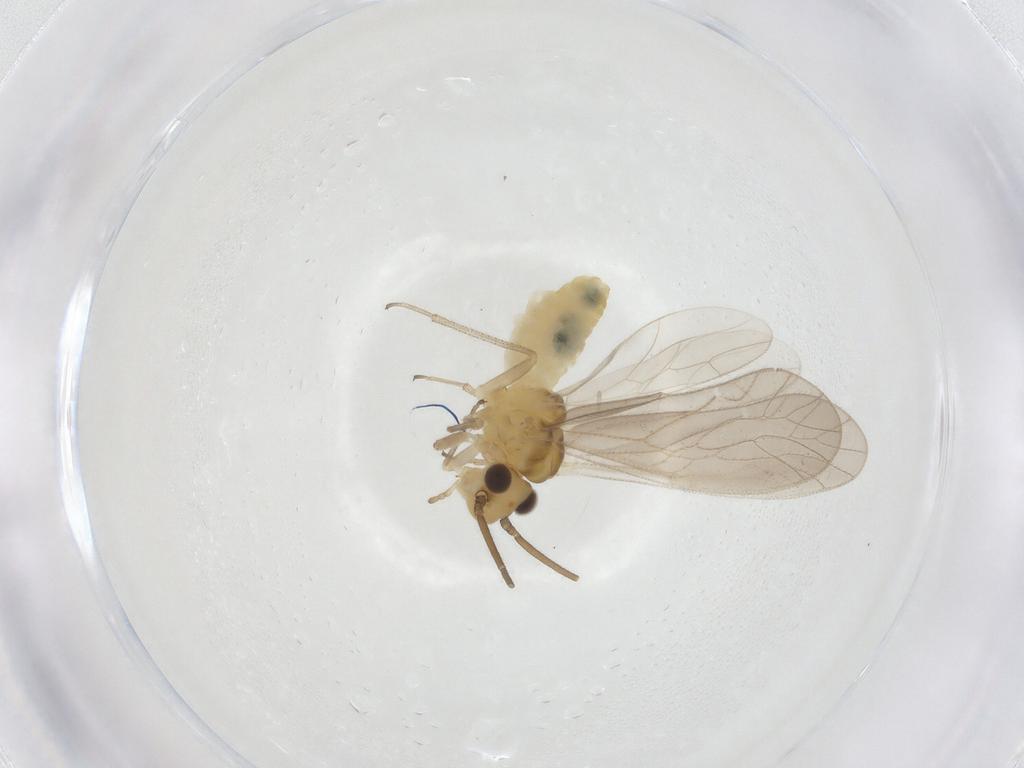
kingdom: Animalia
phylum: Arthropoda
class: Insecta
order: Psocodea
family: Caeciliusidae
